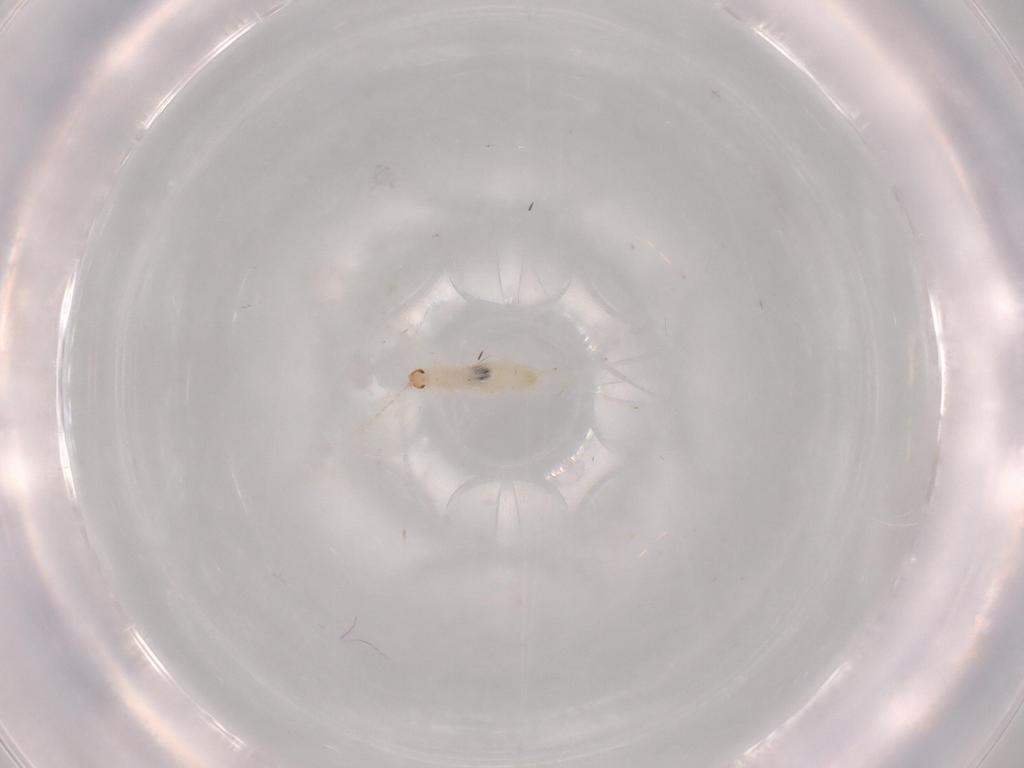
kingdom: Animalia
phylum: Arthropoda
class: Insecta
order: Diptera
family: Cecidomyiidae
